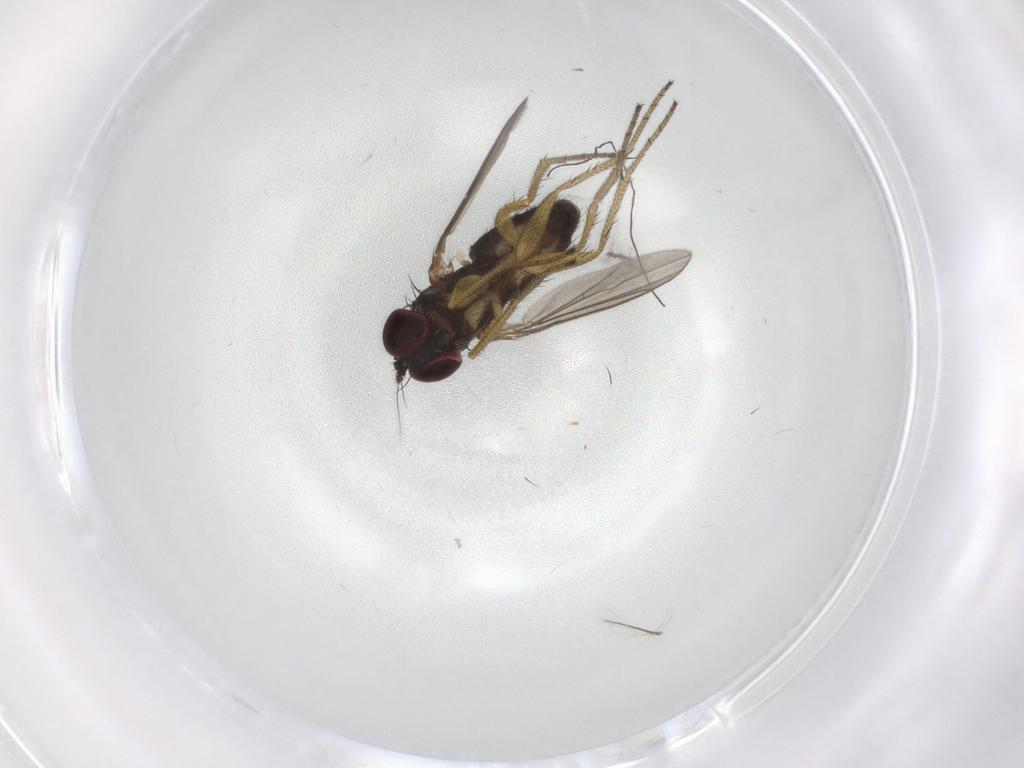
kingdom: Animalia
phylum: Arthropoda
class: Insecta
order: Diptera
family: Dolichopodidae
